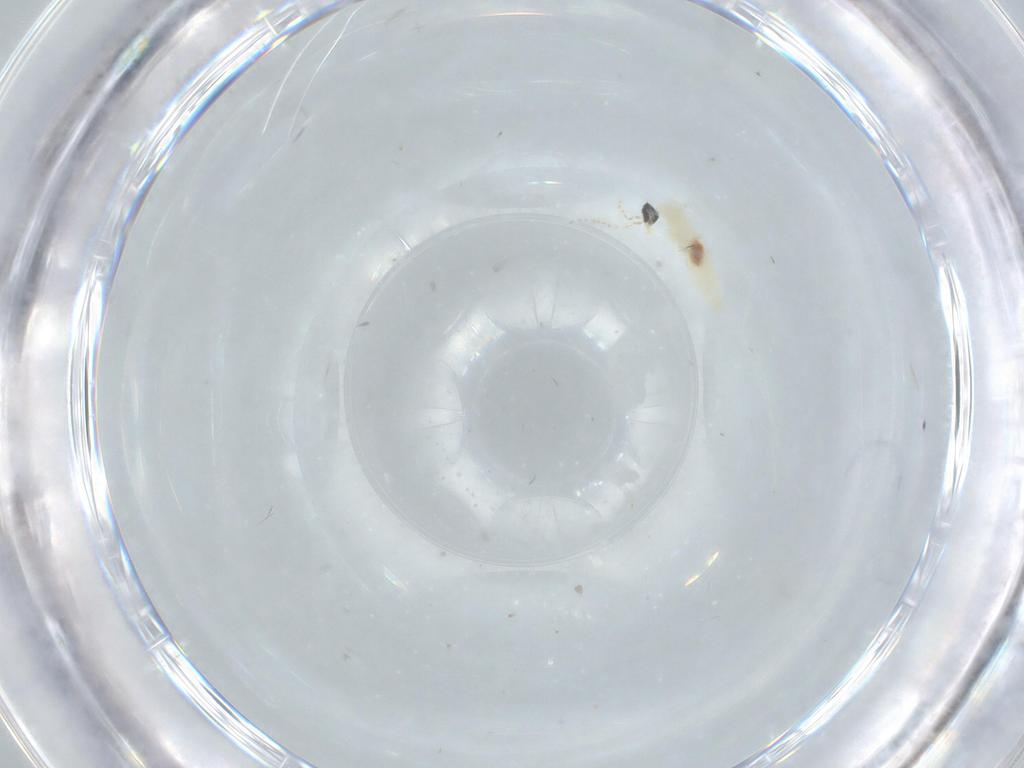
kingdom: Animalia
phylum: Arthropoda
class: Insecta
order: Diptera
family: Cecidomyiidae
